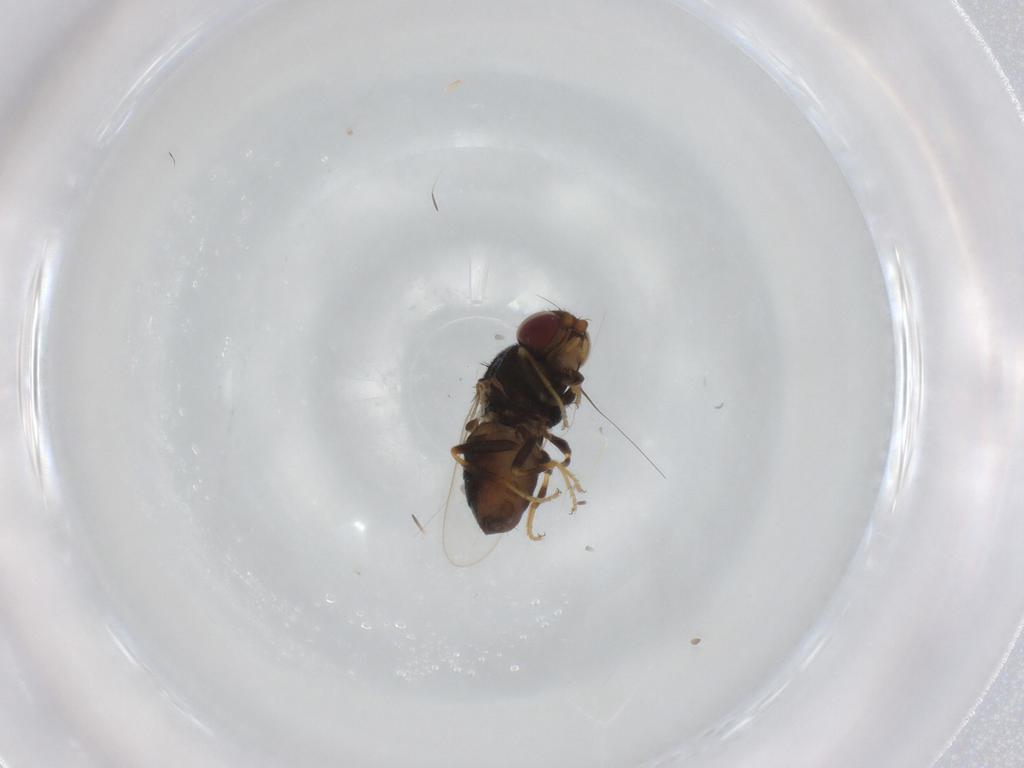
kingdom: Animalia
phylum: Arthropoda
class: Insecta
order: Diptera
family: Chloropidae
